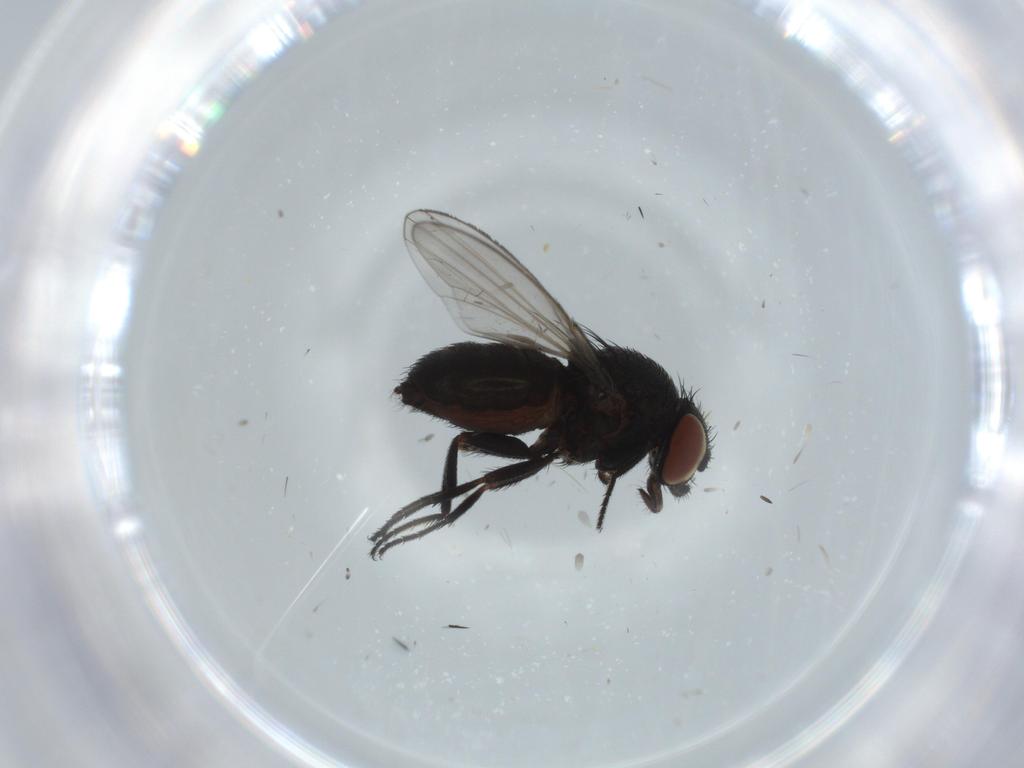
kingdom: Animalia
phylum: Arthropoda
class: Insecta
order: Diptera
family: Milichiidae
